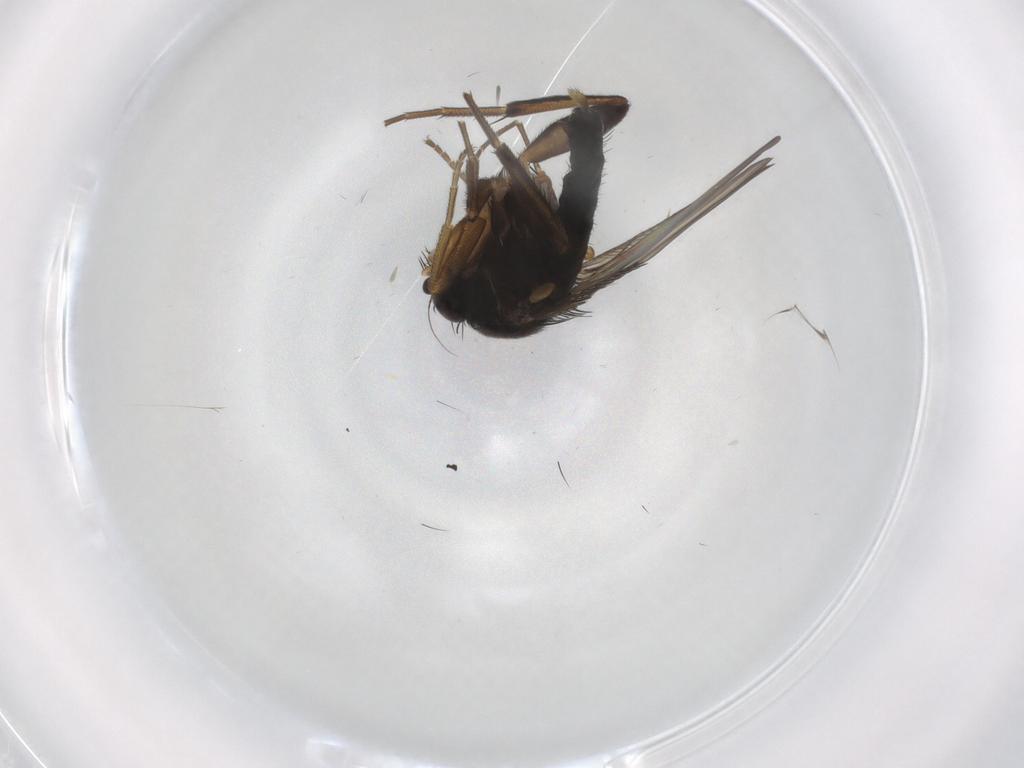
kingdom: Animalia
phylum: Arthropoda
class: Insecta
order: Diptera
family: Phoridae
